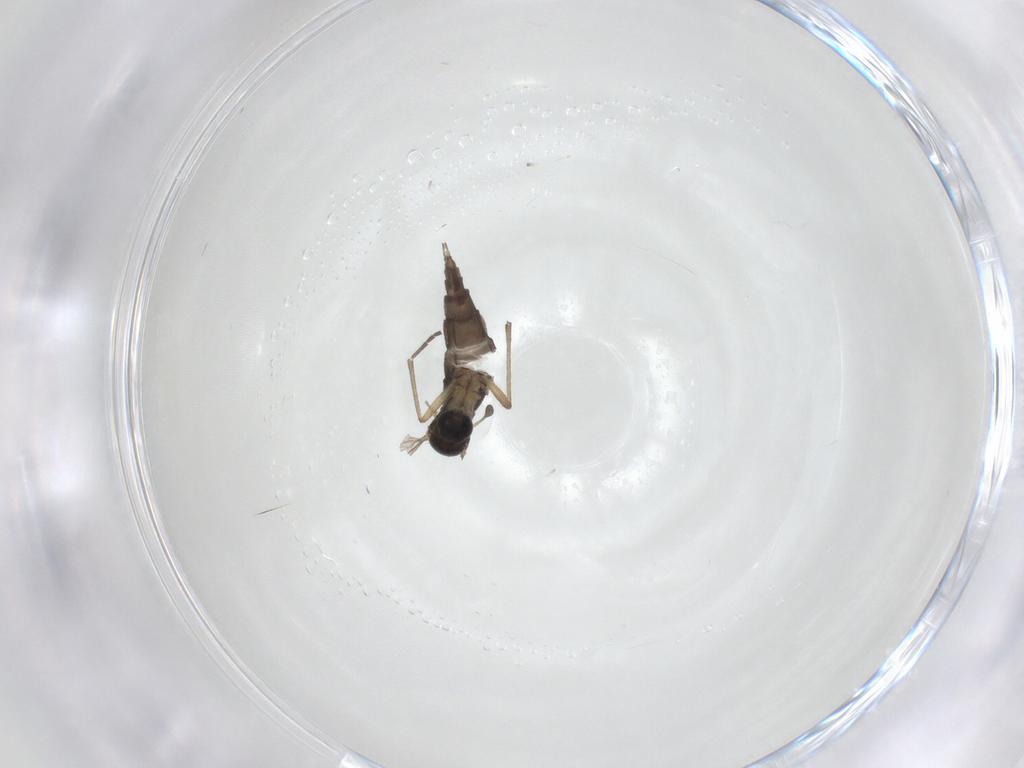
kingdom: Animalia
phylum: Arthropoda
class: Insecta
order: Diptera
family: Sciaridae
